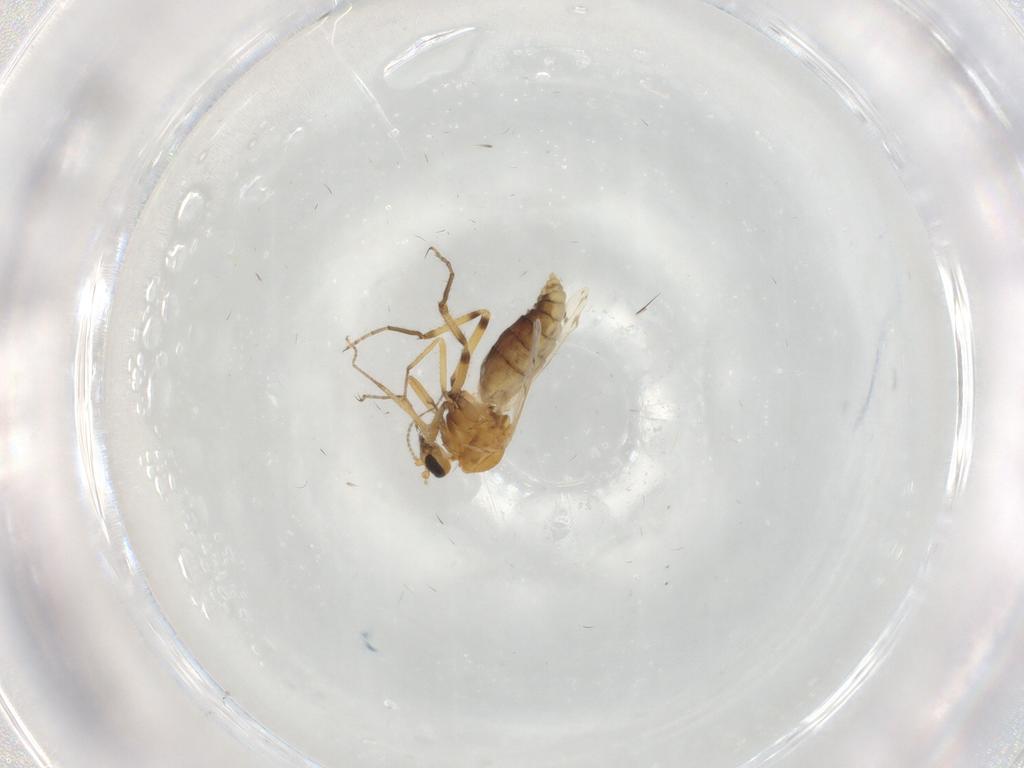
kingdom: Animalia
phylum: Arthropoda
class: Insecta
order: Diptera
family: Ceratopogonidae
